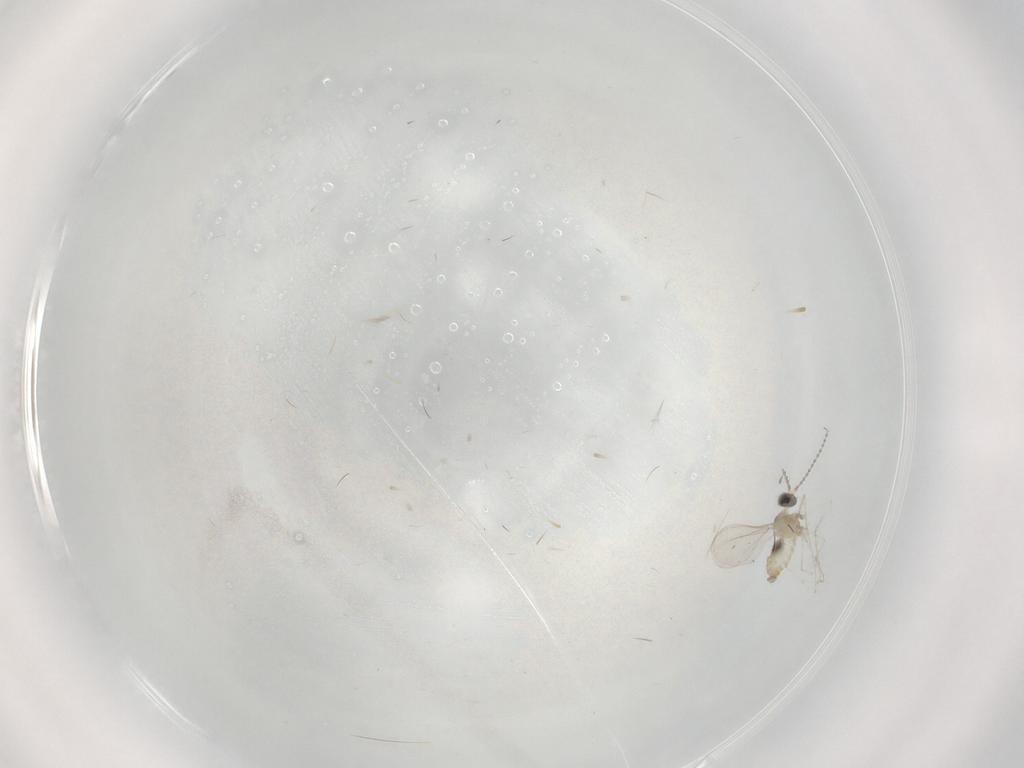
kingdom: Animalia
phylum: Arthropoda
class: Insecta
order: Diptera
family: Cecidomyiidae
